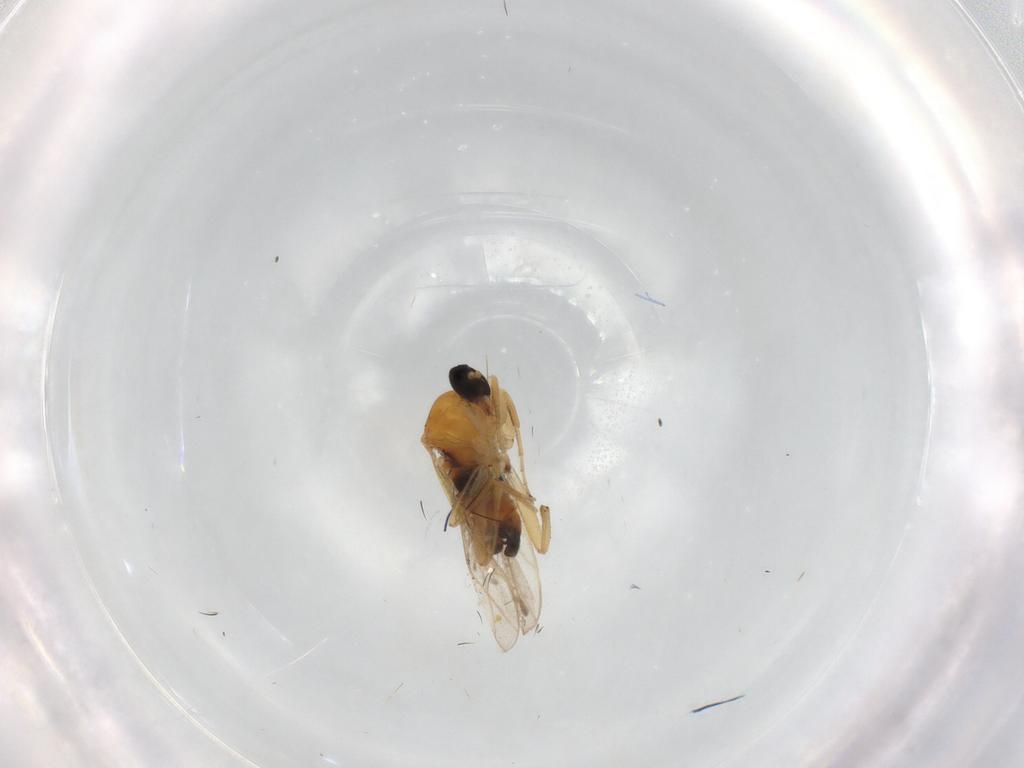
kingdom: Animalia
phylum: Arthropoda
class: Insecta
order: Diptera
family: Hybotidae
